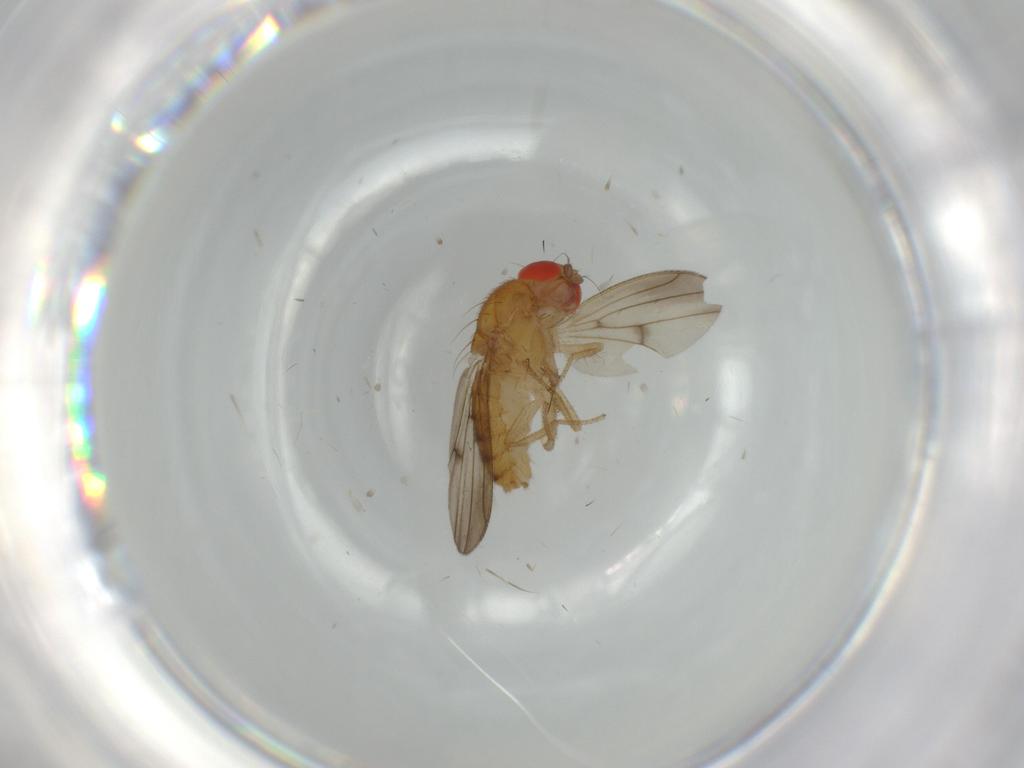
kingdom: Animalia
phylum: Arthropoda
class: Insecta
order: Diptera
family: Drosophilidae
